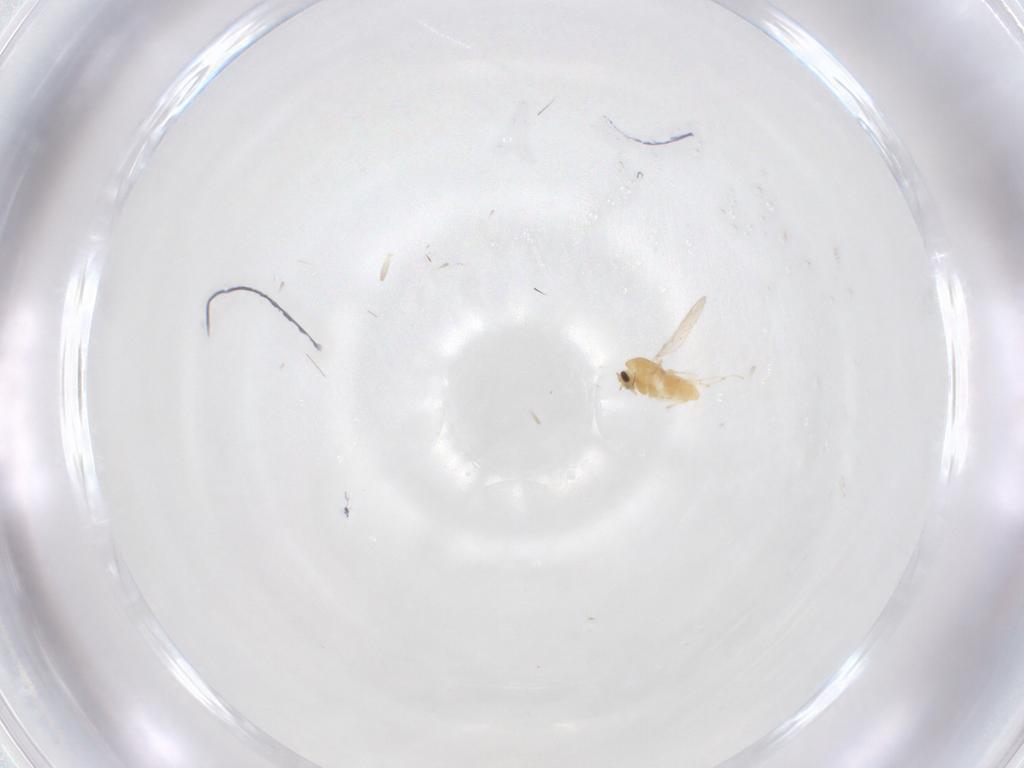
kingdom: Animalia
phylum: Arthropoda
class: Insecta
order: Diptera
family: Chironomidae
